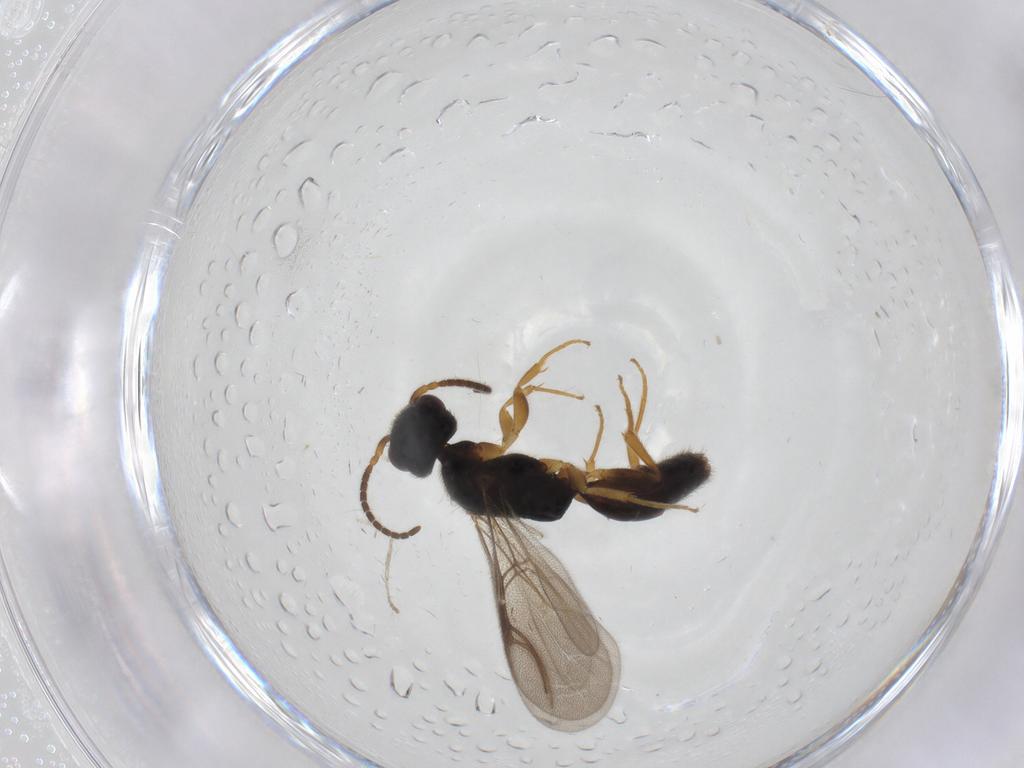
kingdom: Animalia
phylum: Arthropoda
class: Insecta
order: Hymenoptera
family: Bethylidae
